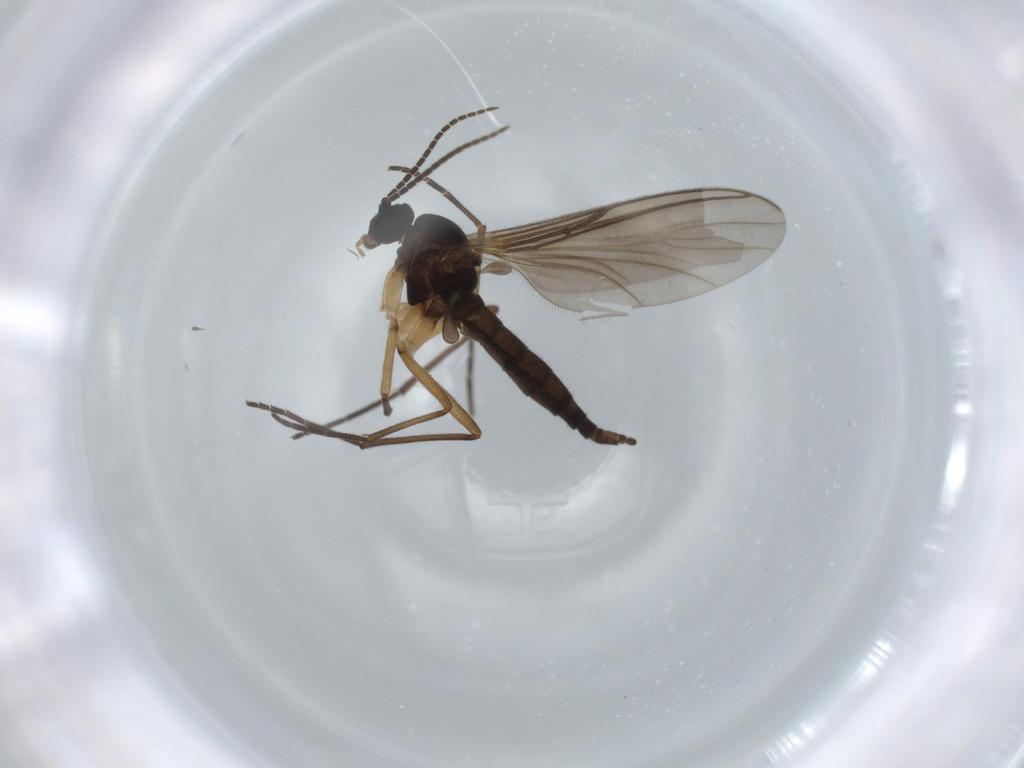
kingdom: Animalia
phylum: Arthropoda
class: Insecta
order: Diptera
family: Sciaridae
